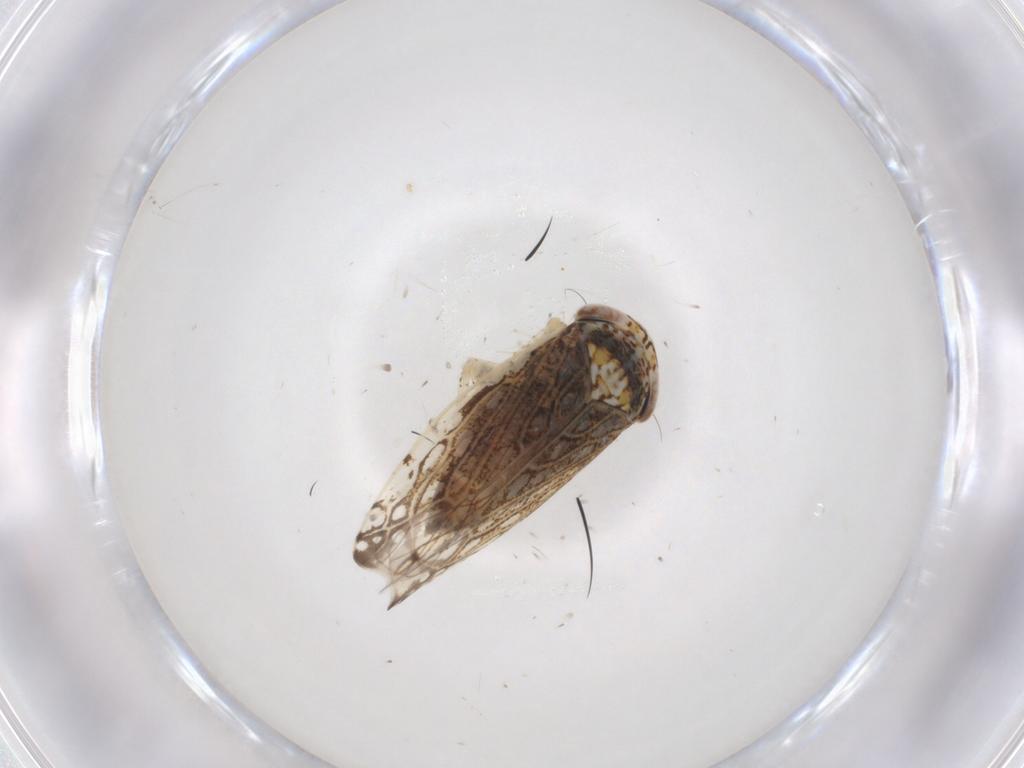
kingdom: Animalia
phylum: Arthropoda
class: Insecta
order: Hemiptera
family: Cicadellidae
